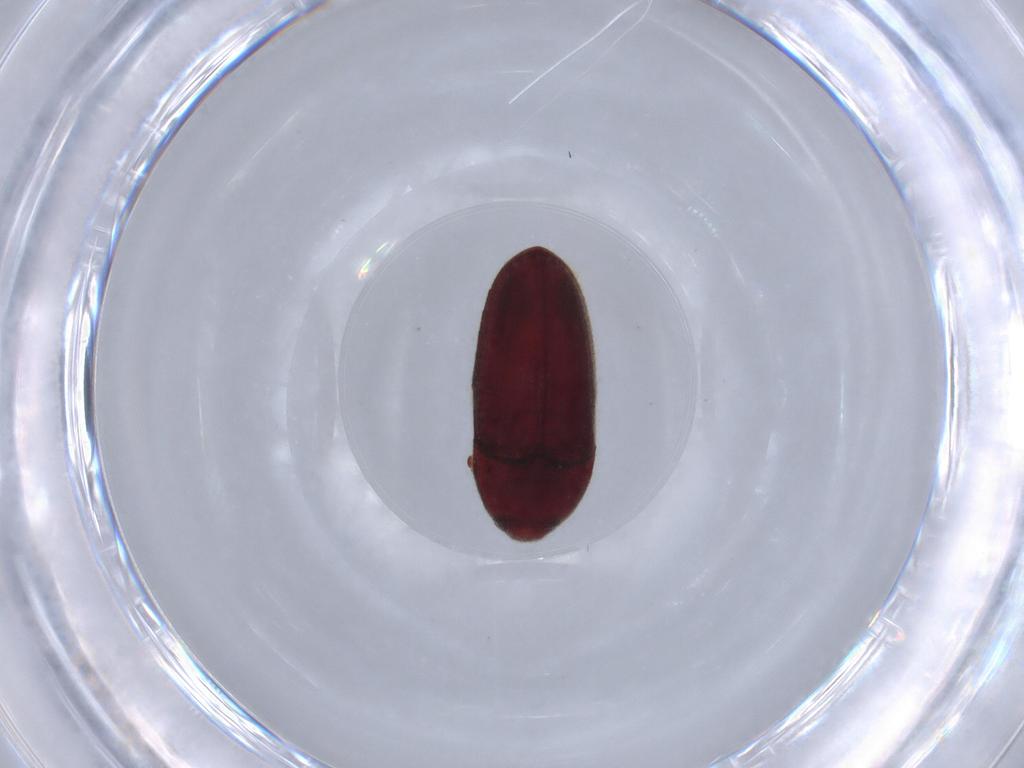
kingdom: Animalia
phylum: Arthropoda
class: Insecta
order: Coleoptera
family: Throscidae
